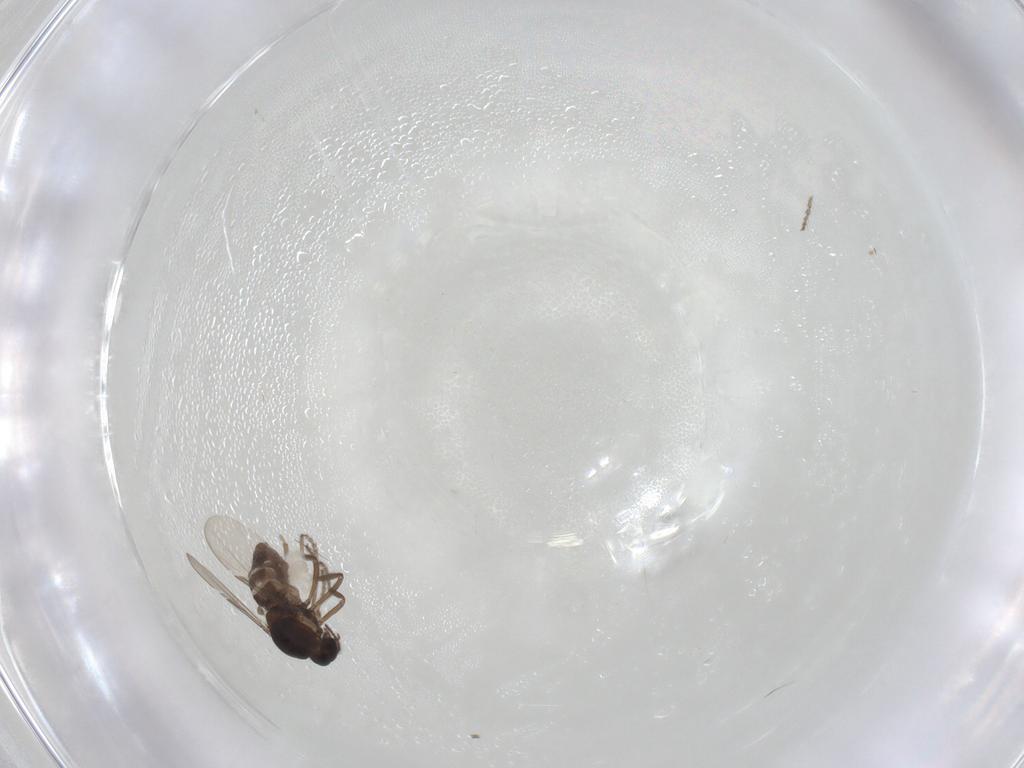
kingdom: Animalia
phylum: Arthropoda
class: Insecta
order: Diptera
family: Ceratopogonidae
